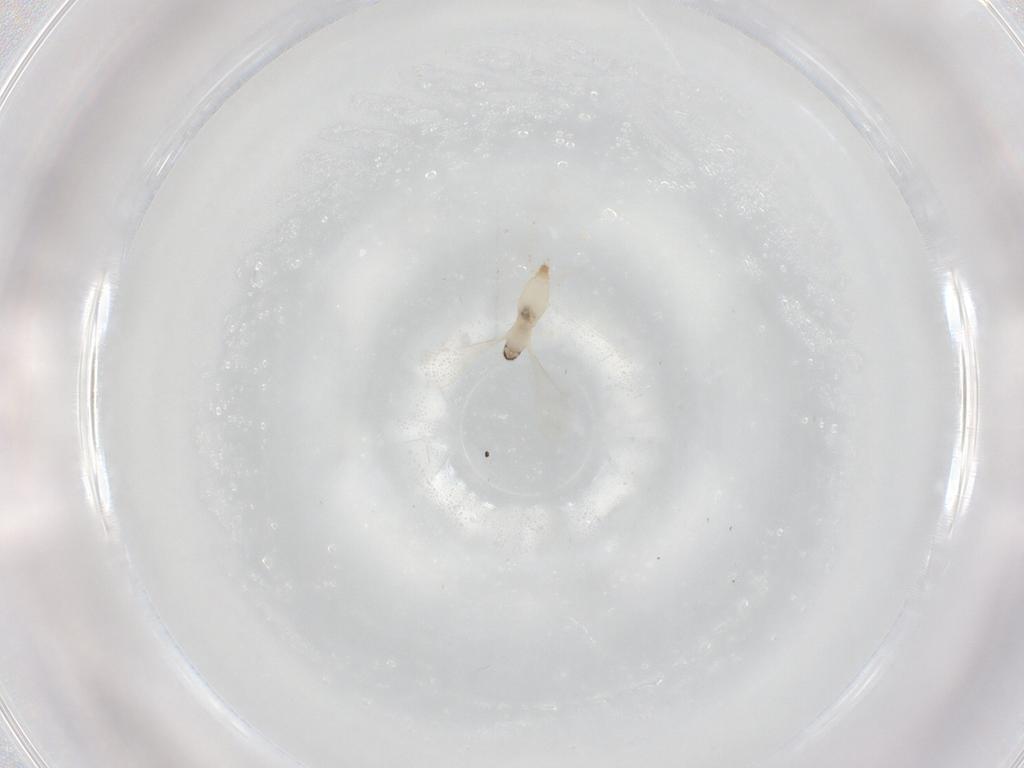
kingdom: Animalia
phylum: Arthropoda
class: Insecta
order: Diptera
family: Cecidomyiidae
